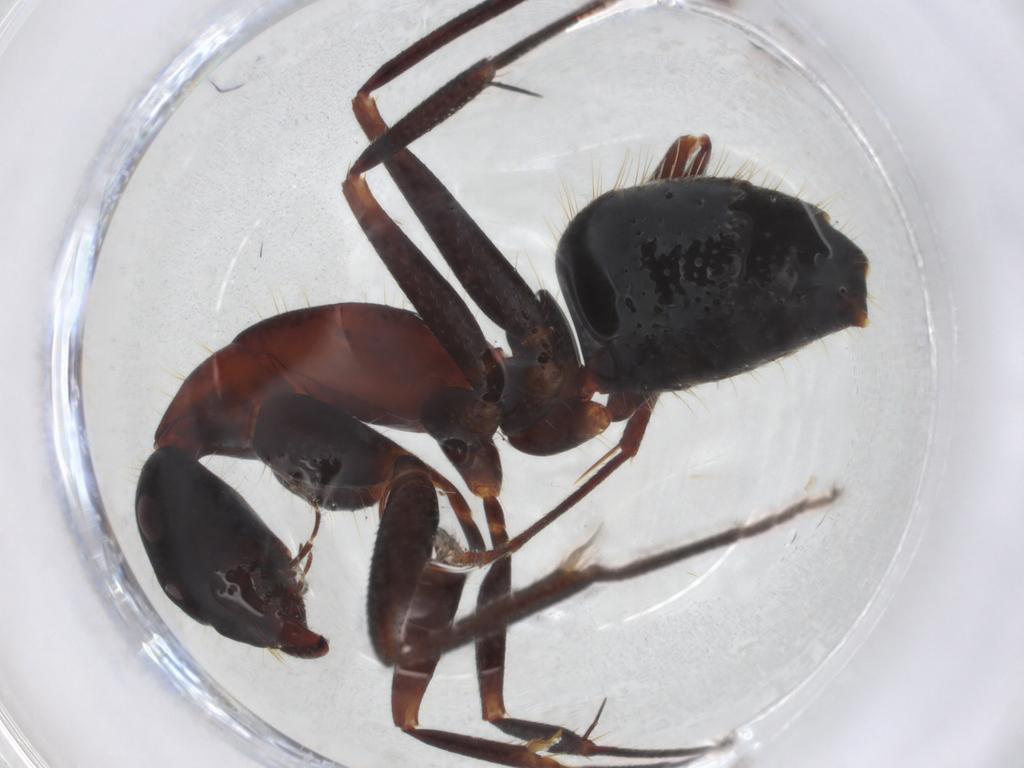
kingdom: Animalia
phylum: Arthropoda
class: Insecta
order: Hymenoptera
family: Formicidae
